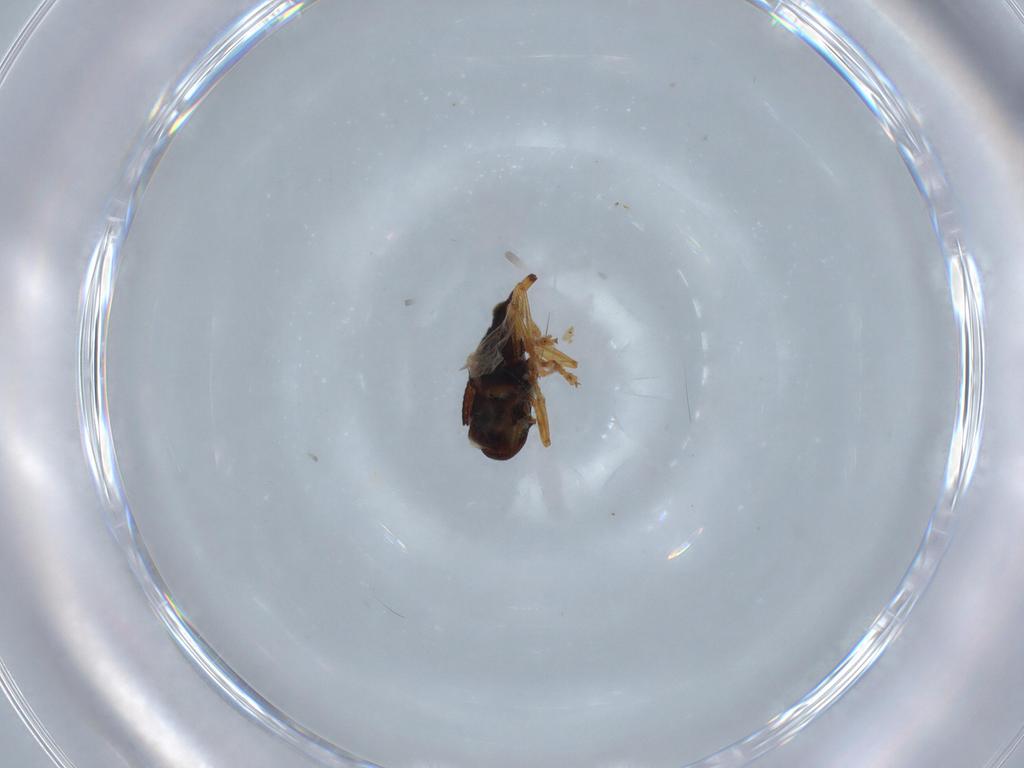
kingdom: Animalia
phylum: Arthropoda
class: Insecta
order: Coleoptera
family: Brentidae
